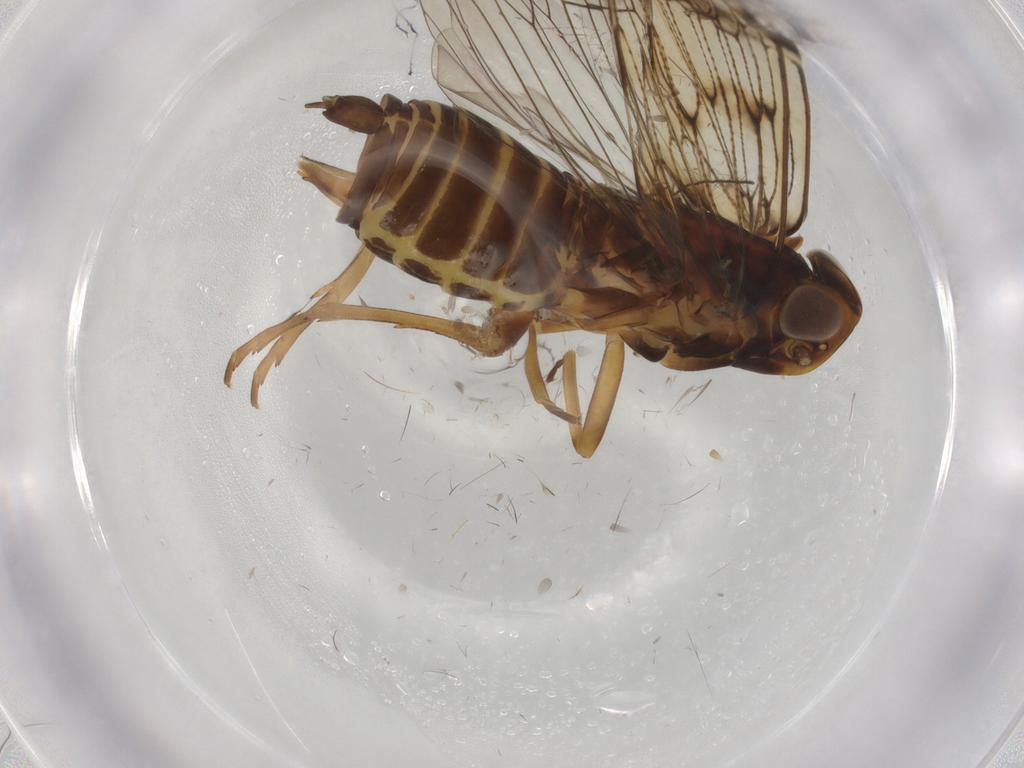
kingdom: Animalia
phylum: Arthropoda
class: Insecta
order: Hemiptera
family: Cixiidae
